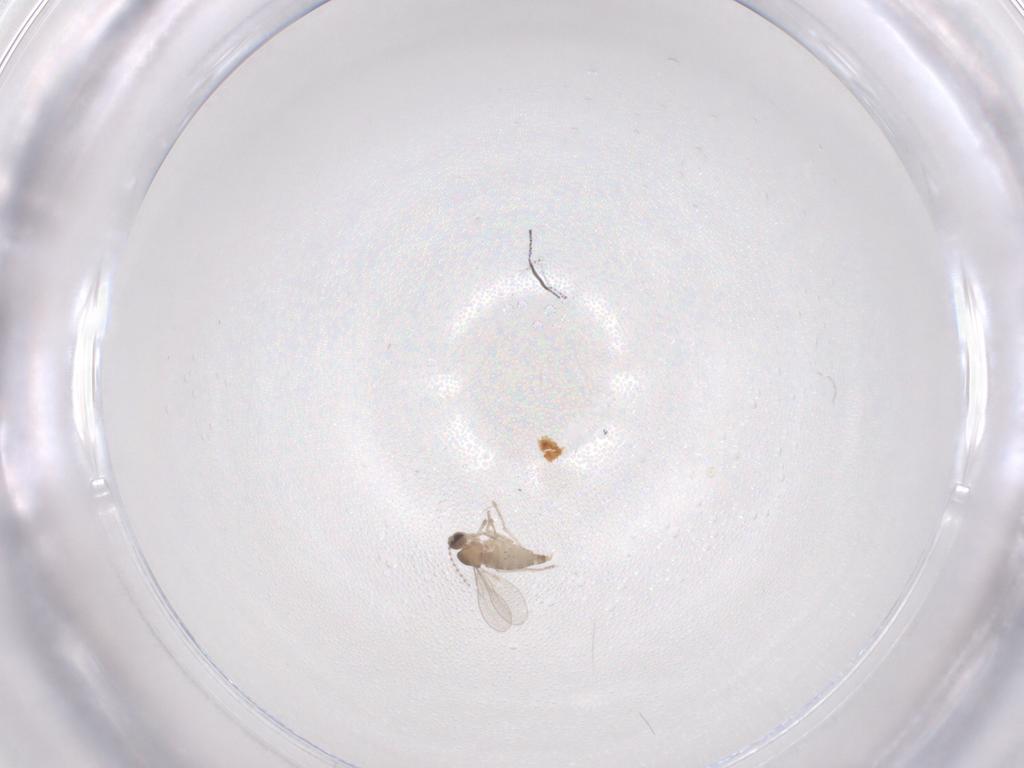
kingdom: Animalia
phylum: Arthropoda
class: Insecta
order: Diptera
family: Cecidomyiidae
